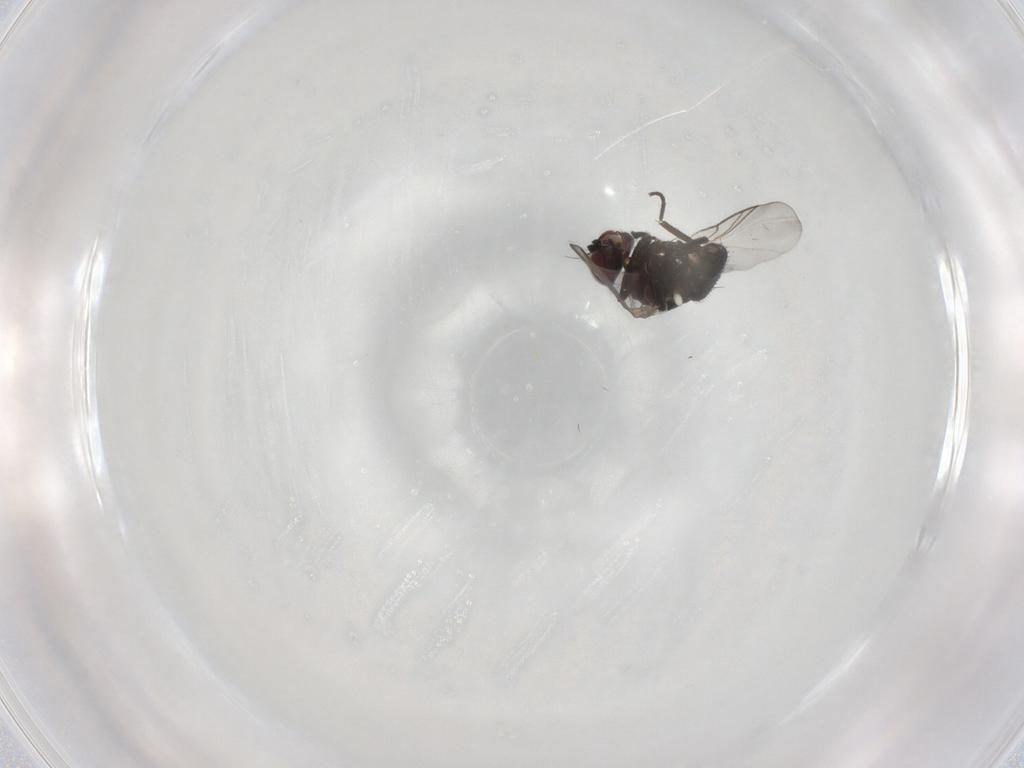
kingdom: Animalia
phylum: Arthropoda
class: Insecta
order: Diptera
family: Agromyzidae
